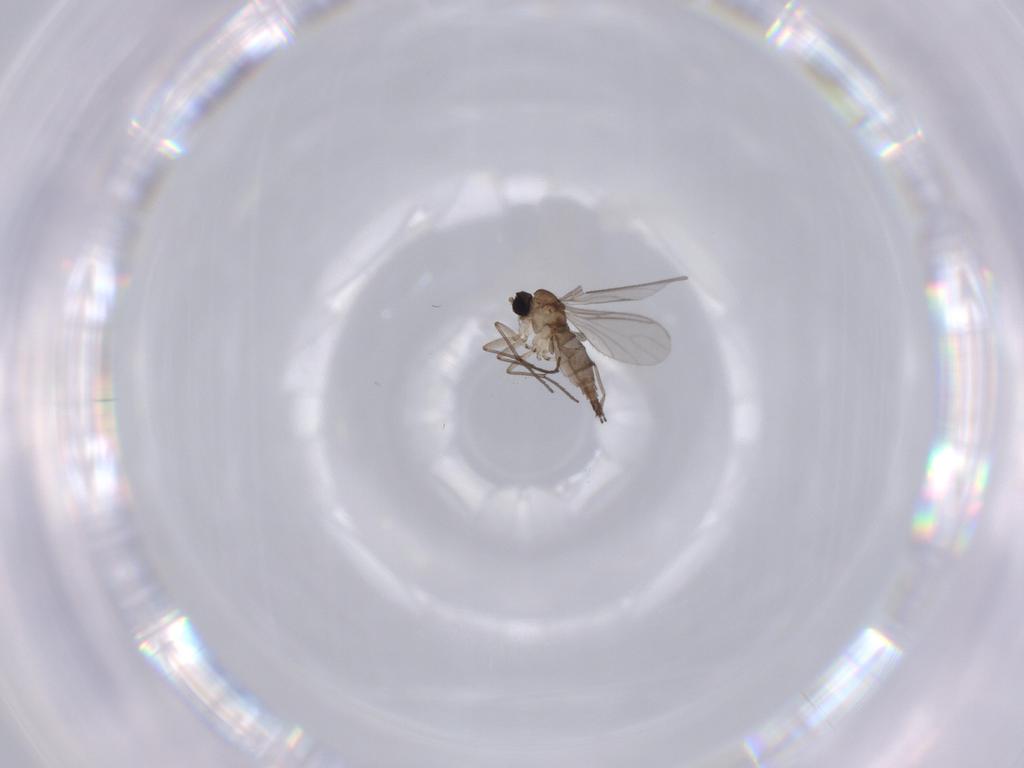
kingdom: Animalia
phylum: Arthropoda
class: Insecta
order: Diptera
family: Sciaridae
